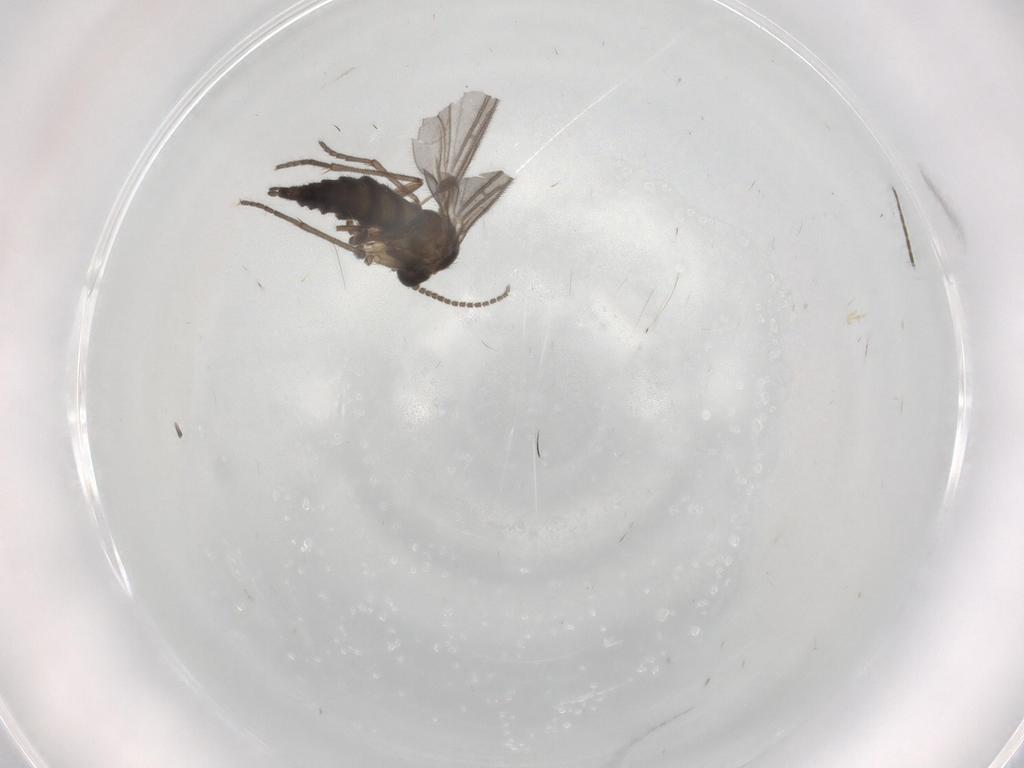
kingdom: Animalia
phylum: Arthropoda
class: Insecta
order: Diptera
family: Sciaridae
